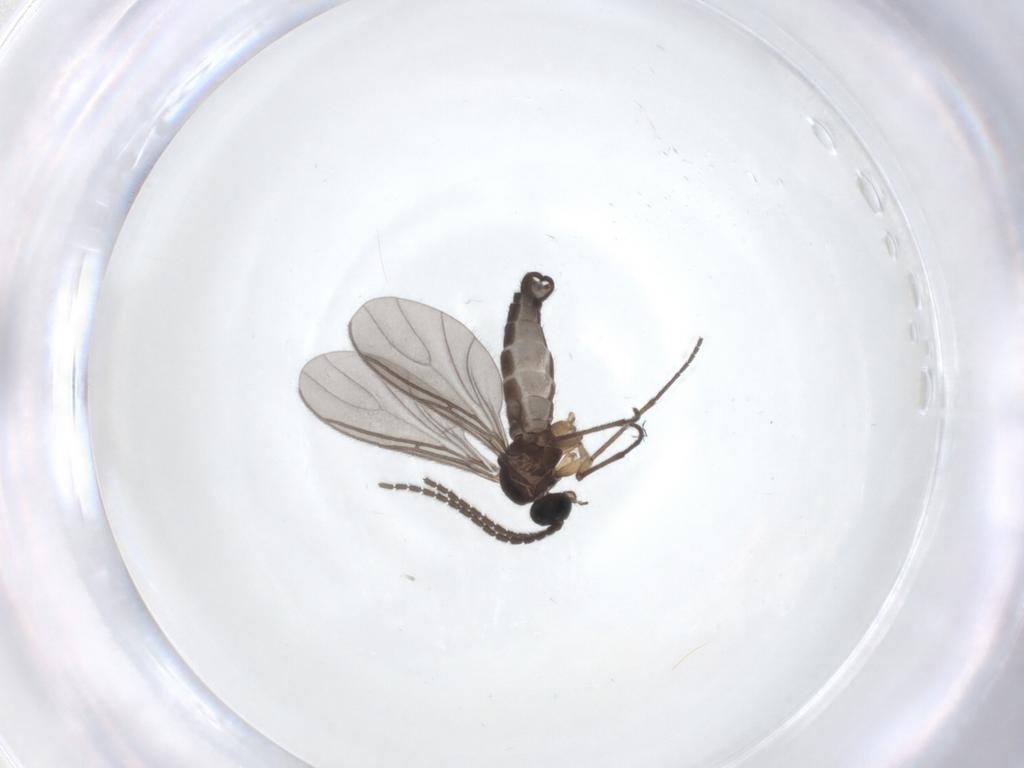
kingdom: Animalia
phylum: Arthropoda
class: Insecta
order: Diptera
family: Sciaridae
